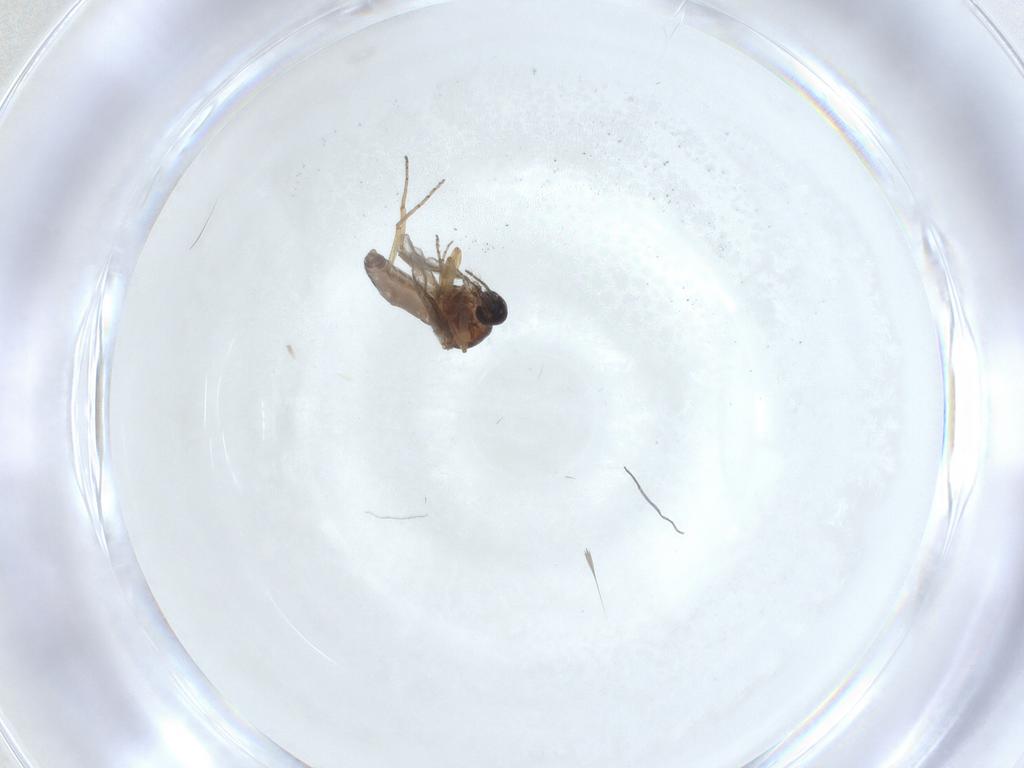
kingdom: Animalia
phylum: Arthropoda
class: Insecta
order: Diptera
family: Ceratopogonidae
